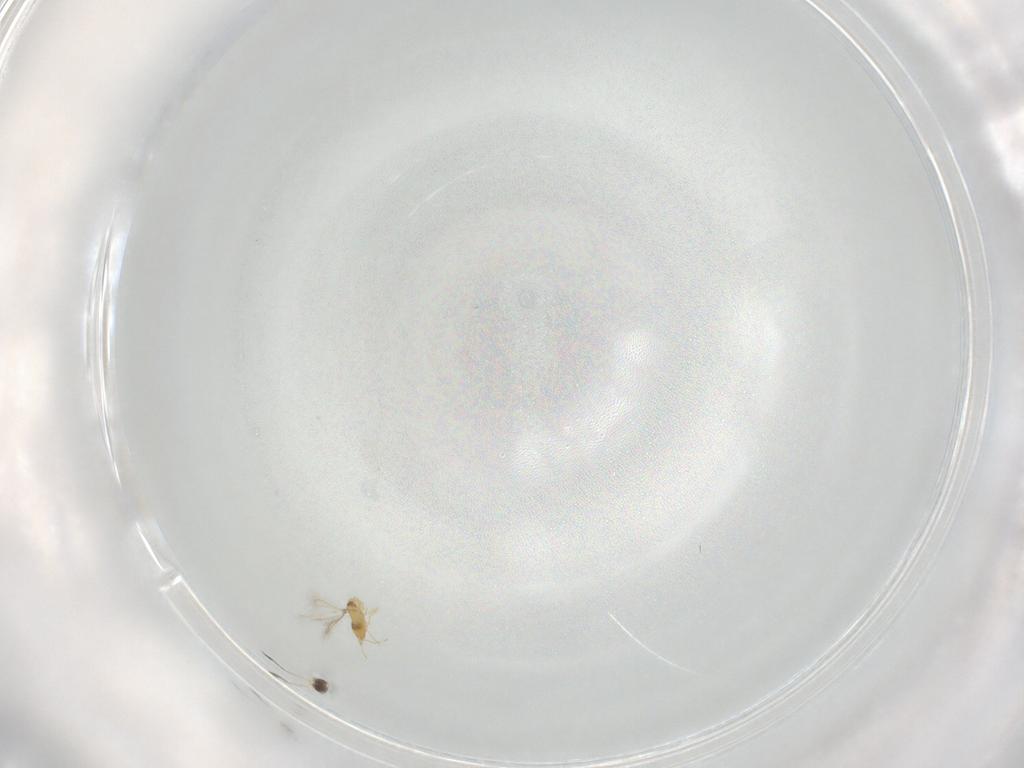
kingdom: Animalia
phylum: Arthropoda
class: Insecta
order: Hymenoptera
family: Mymaridae
